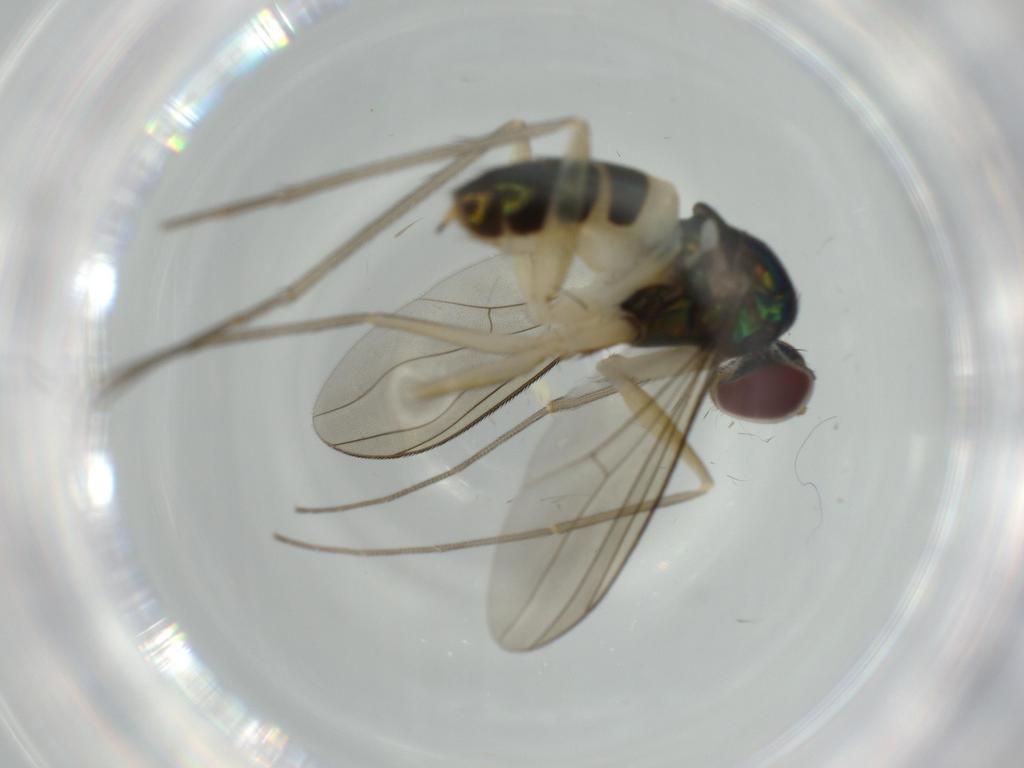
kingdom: Animalia
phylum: Arthropoda
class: Insecta
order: Diptera
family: Dolichopodidae
